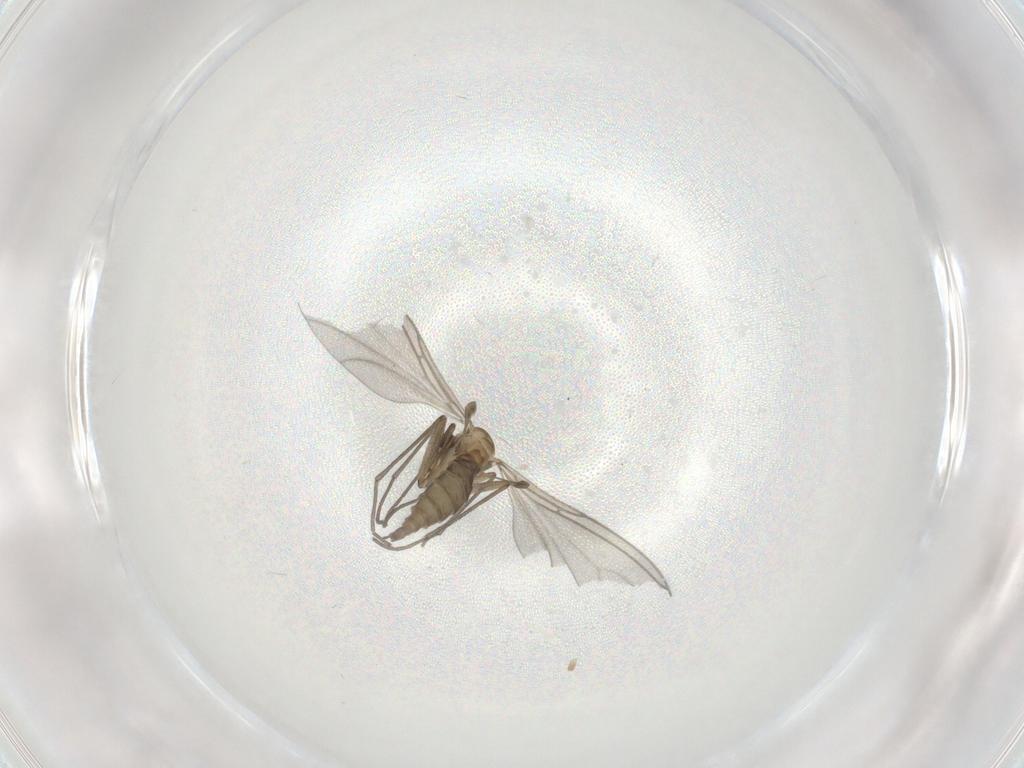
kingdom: Animalia
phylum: Arthropoda
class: Insecta
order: Diptera
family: Sciaridae
